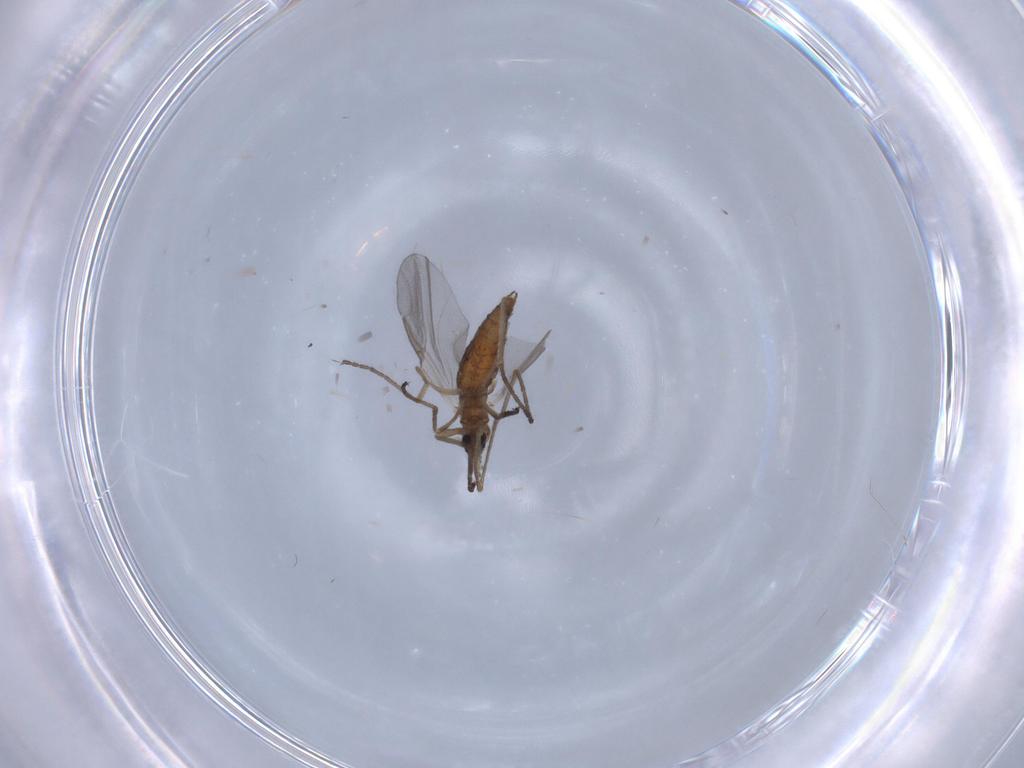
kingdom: Animalia
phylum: Arthropoda
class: Insecta
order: Diptera
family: Cecidomyiidae
